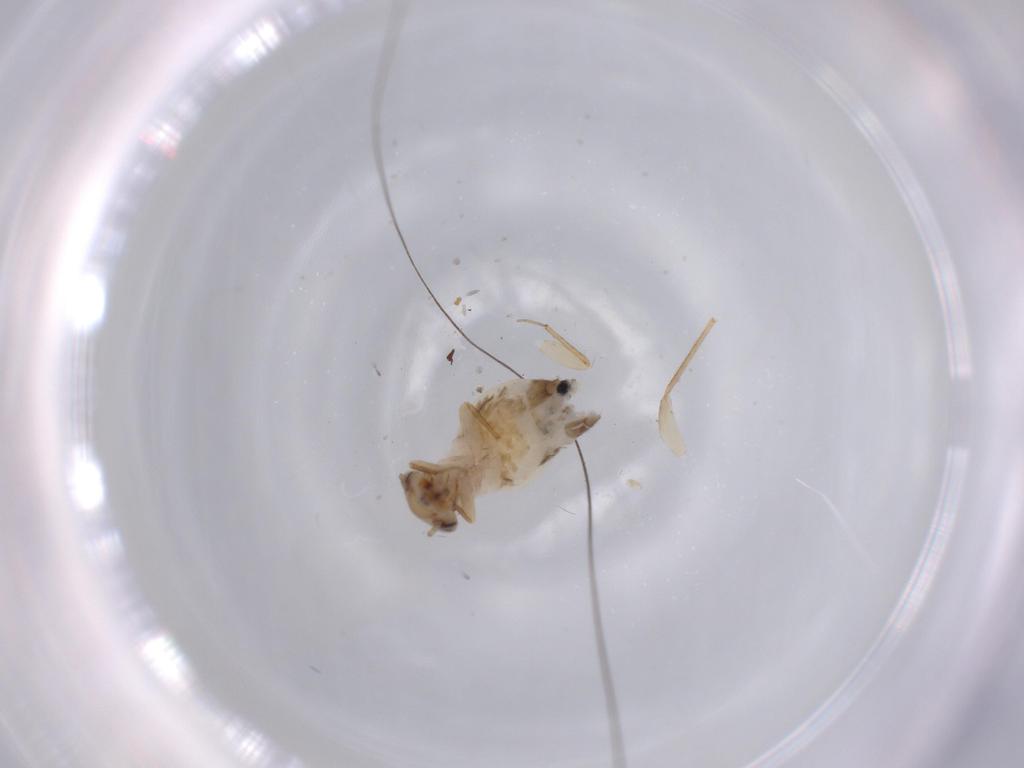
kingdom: Animalia
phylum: Arthropoda
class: Insecta
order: Psocodea
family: Lepidopsocidae
